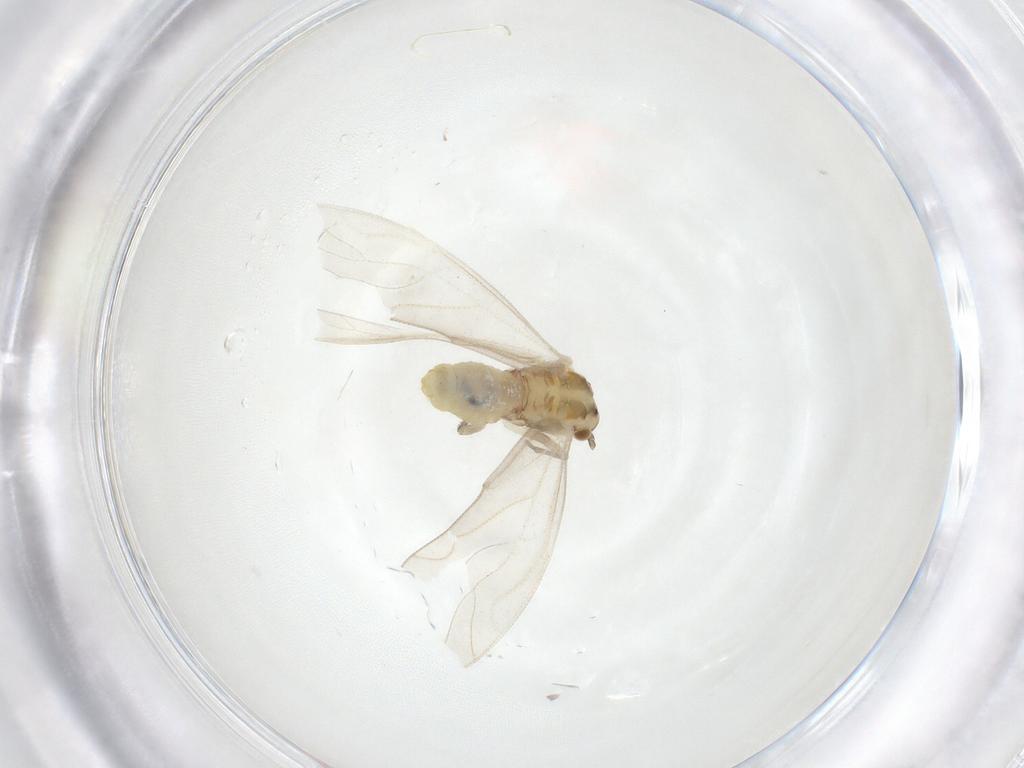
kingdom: Animalia
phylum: Arthropoda
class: Insecta
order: Psocodea
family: Caeciliusidae
